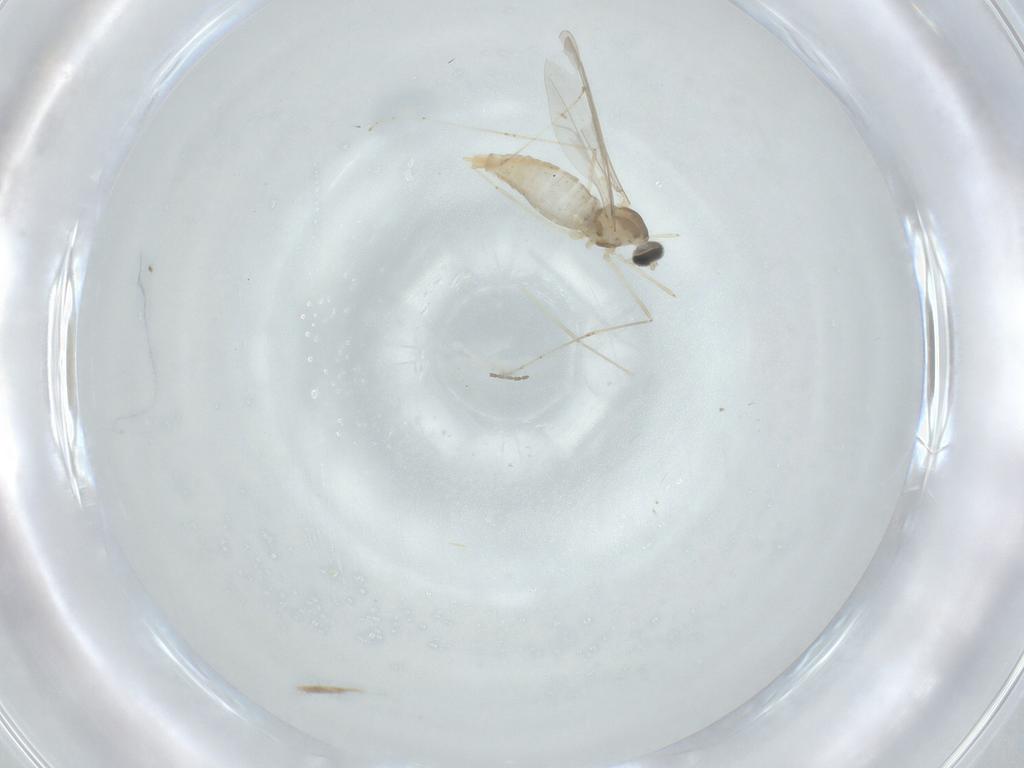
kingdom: Animalia
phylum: Arthropoda
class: Insecta
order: Diptera
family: Cecidomyiidae
